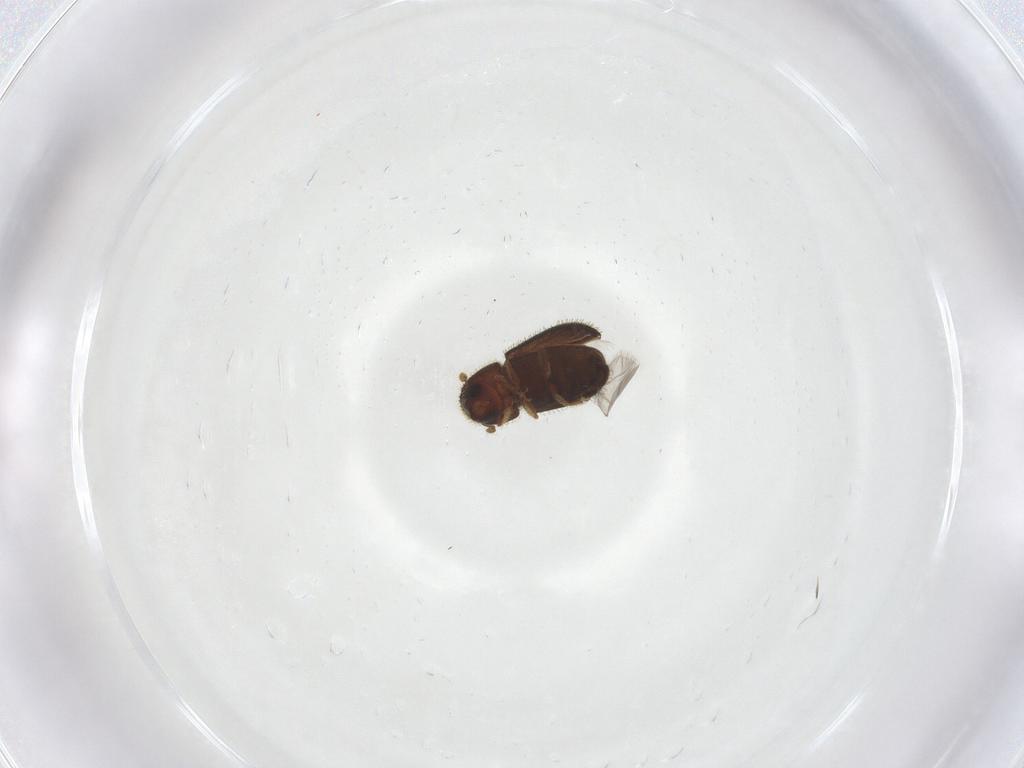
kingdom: Animalia
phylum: Arthropoda
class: Insecta
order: Coleoptera
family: Curculionidae
